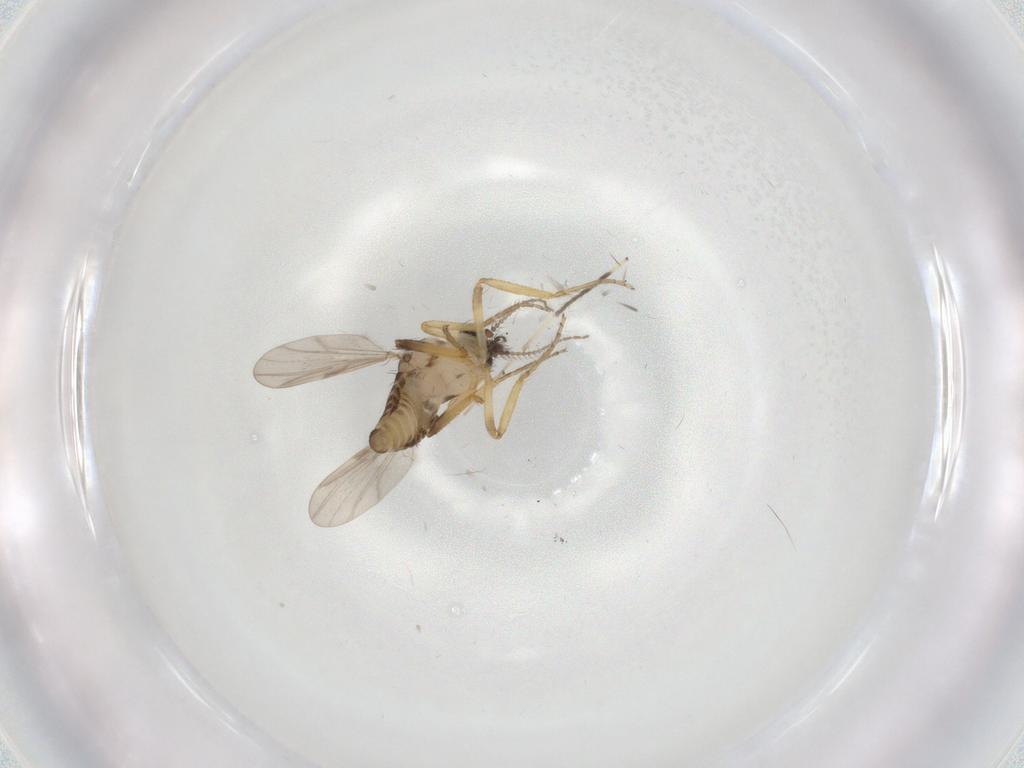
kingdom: Animalia
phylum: Arthropoda
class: Insecta
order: Diptera
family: Ceratopogonidae
